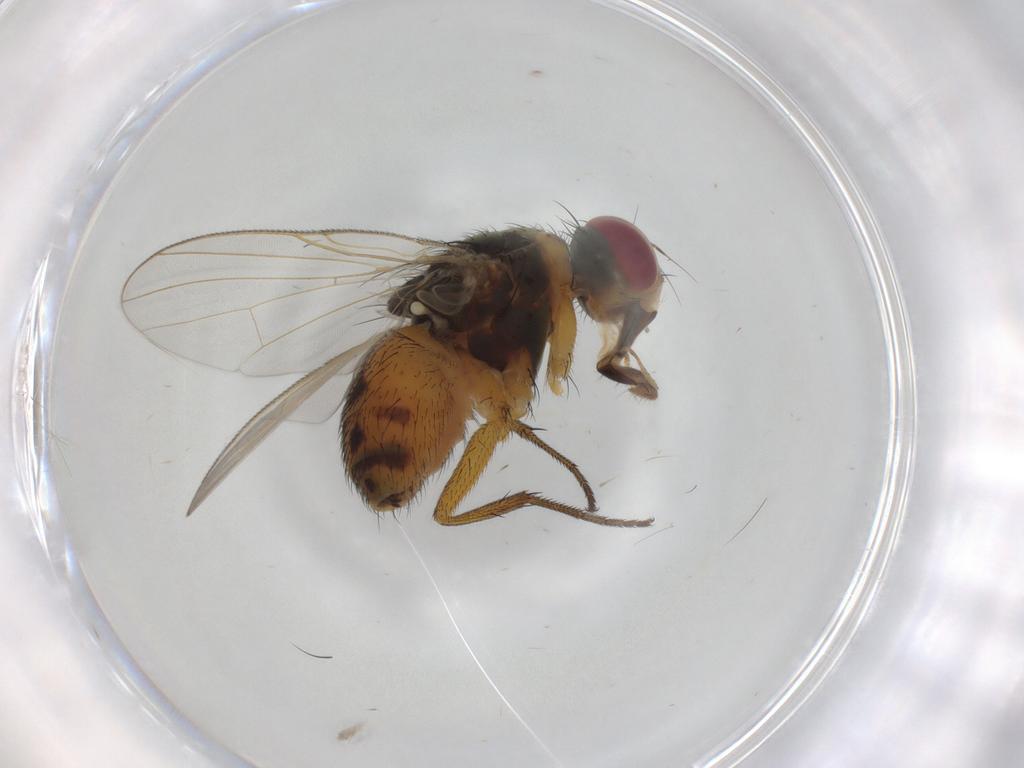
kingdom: Animalia
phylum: Arthropoda
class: Insecta
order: Diptera
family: Muscidae
